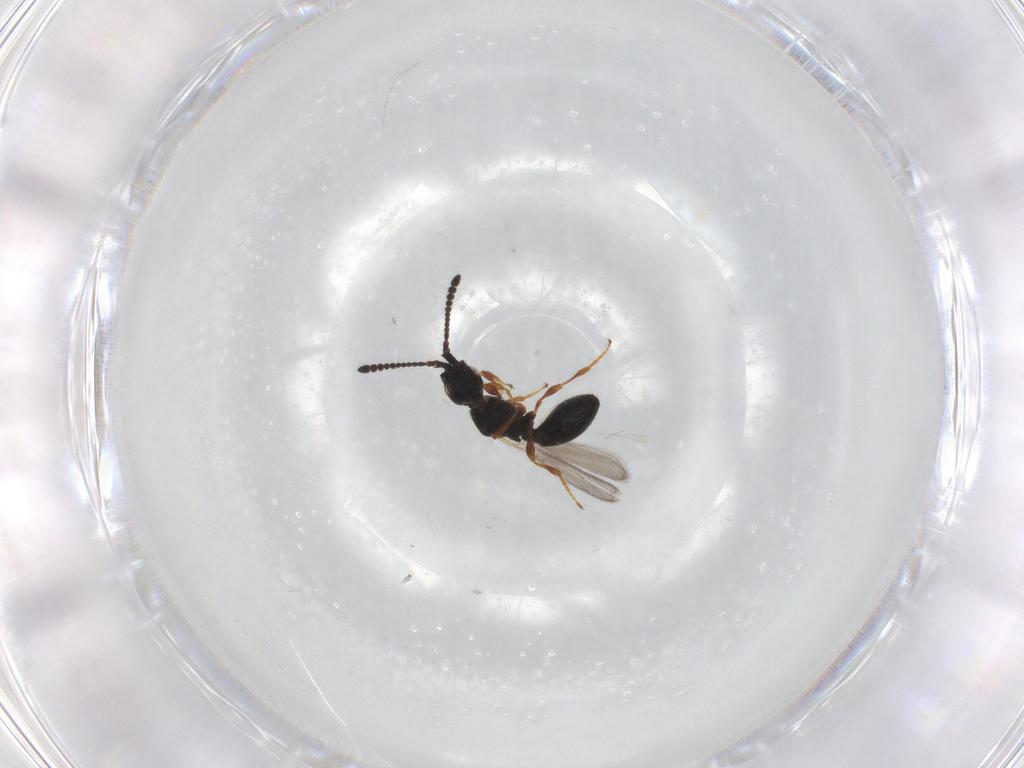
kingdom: Animalia
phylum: Arthropoda
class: Insecta
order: Hymenoptera
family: Diapriidae
